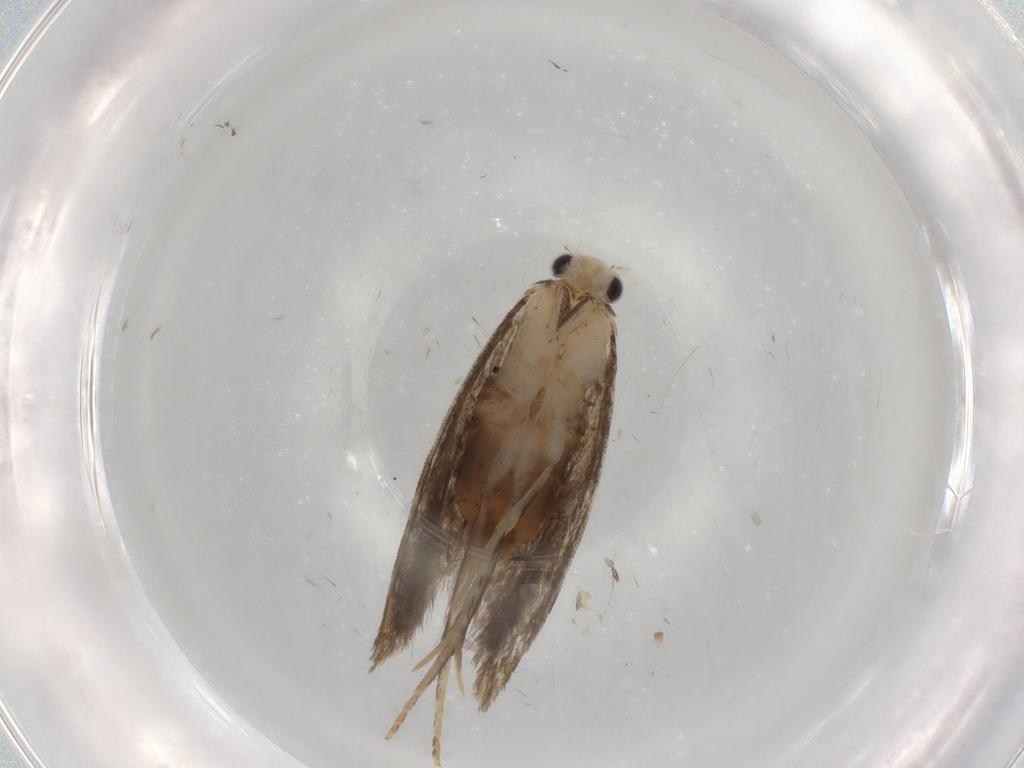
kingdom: Animalia
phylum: Arthropoda
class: Insecta
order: Lepidoptera
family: Tineidae
